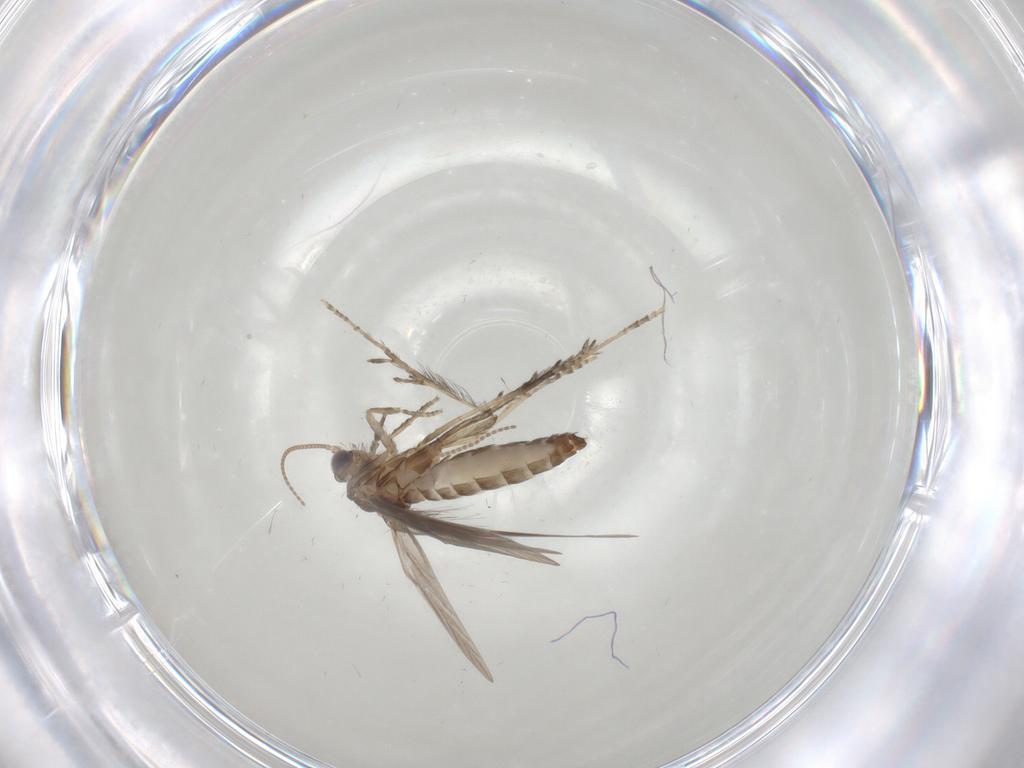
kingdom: Animalia
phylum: Arthropoda
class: Insecta
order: Trichoptera
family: Hydroptilidae
